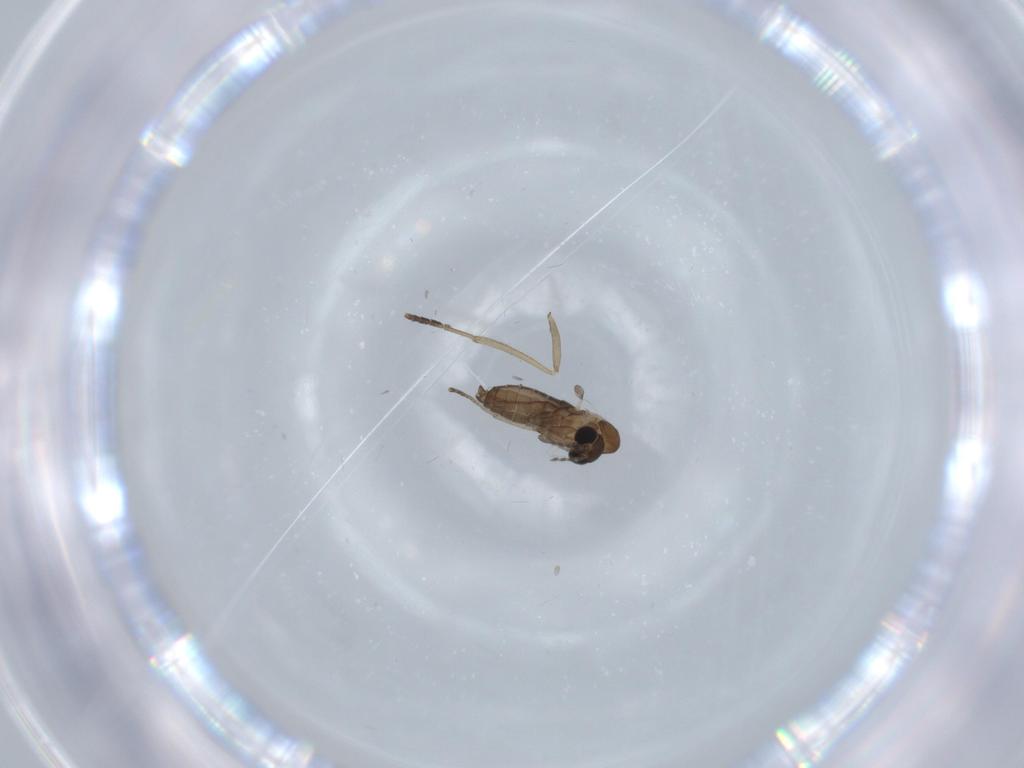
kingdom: Animalia
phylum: Arthropoda
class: Insecta
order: Diptera
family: Psychodidae
